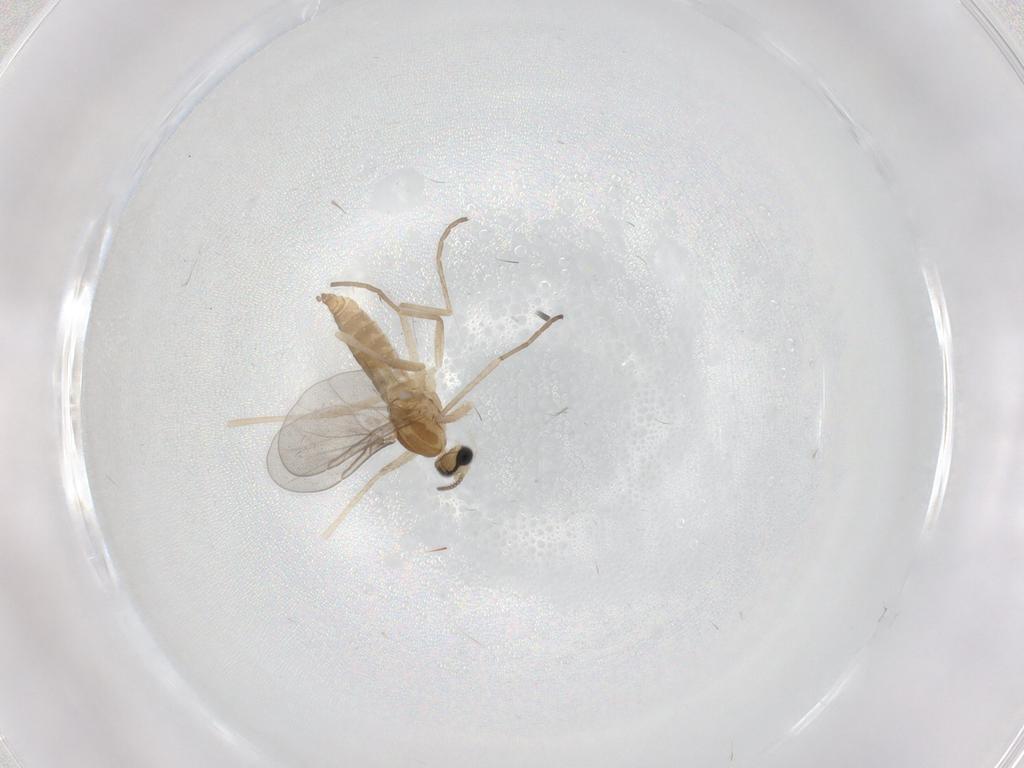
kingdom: Animalia
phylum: Arthropoda
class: Insecta
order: Diptera
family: Cecidomyiidae
